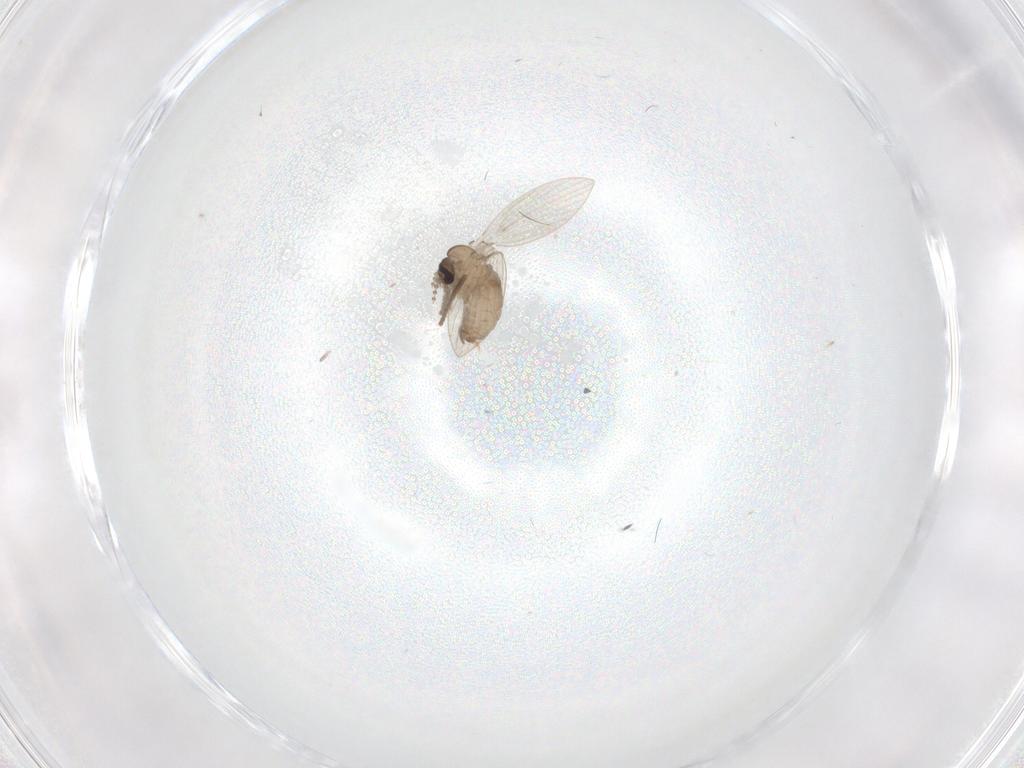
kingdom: Animalia
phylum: Arthropoda
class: Insecta
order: Diptera
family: Psychodidae
